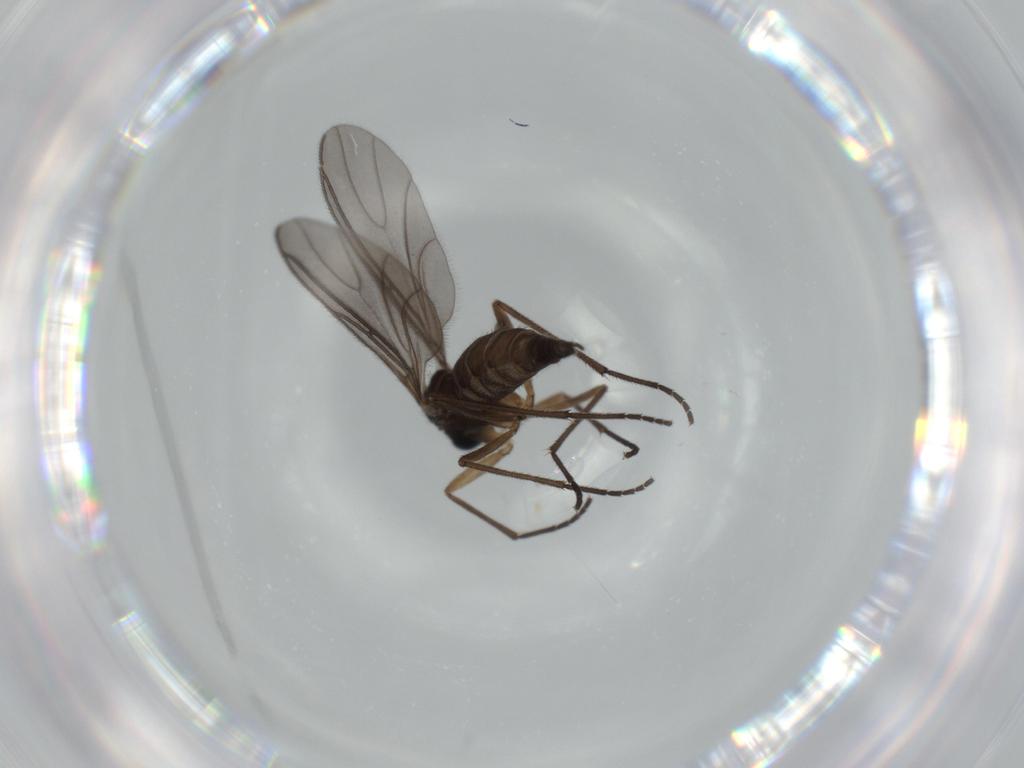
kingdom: Animalia
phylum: Arthropoda
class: Insecta
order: Diptera
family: Sciaridae
